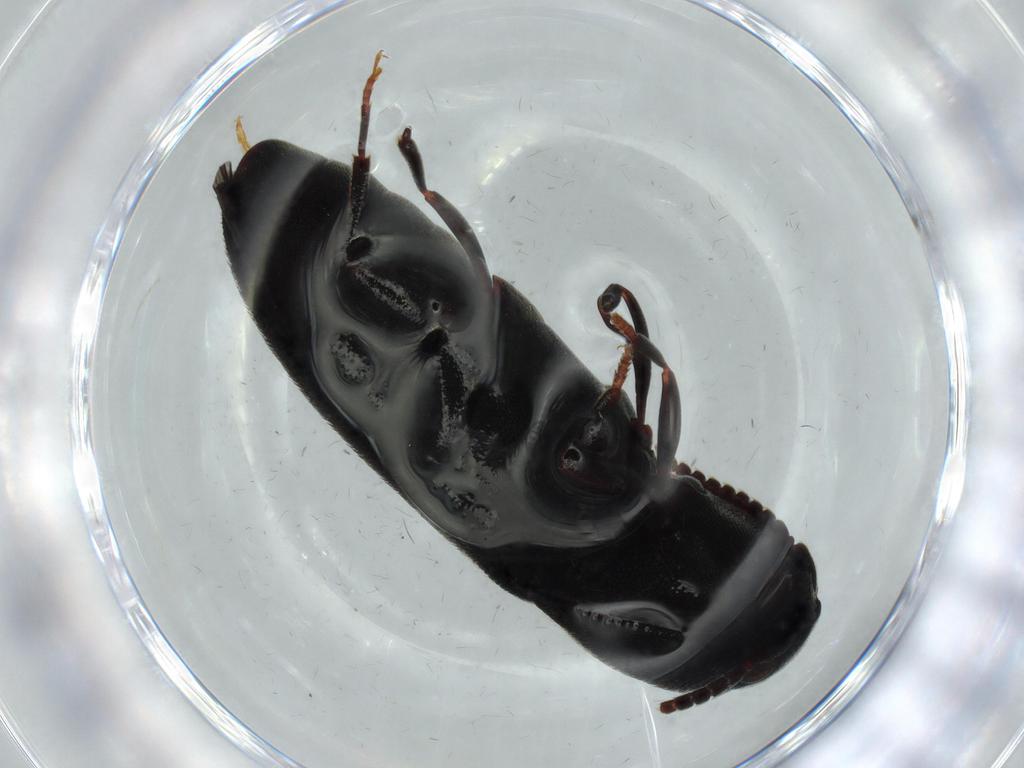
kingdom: Animalia
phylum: Arthropoda
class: Insecta
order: Coleoptera
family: Eucnemidae
